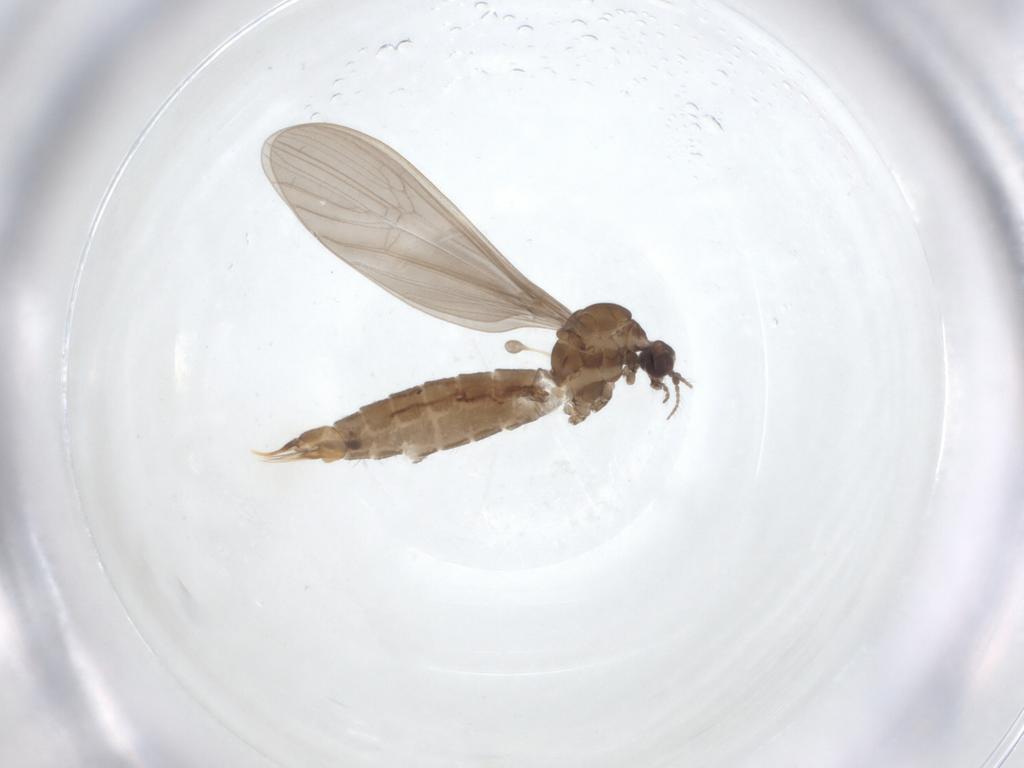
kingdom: Animalia
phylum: Arthropoda
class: Insecta
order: Diptera
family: Limoniidae
